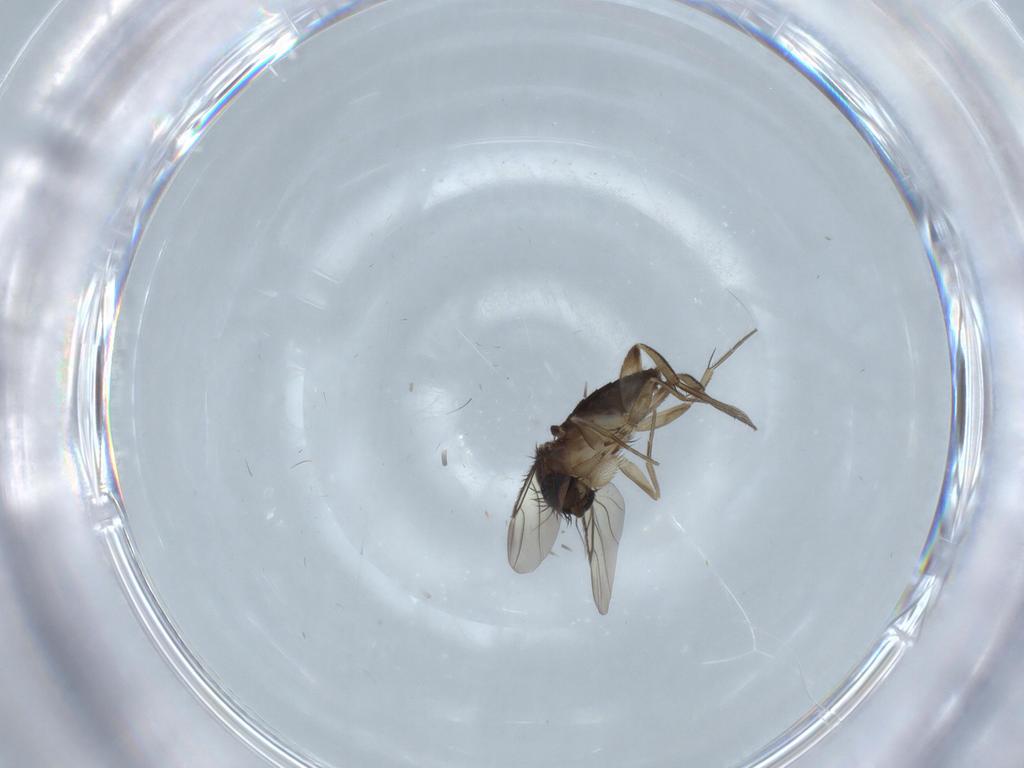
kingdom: Animalia
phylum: Arthropoda
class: Insecta
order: Diptera
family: Phoridae
